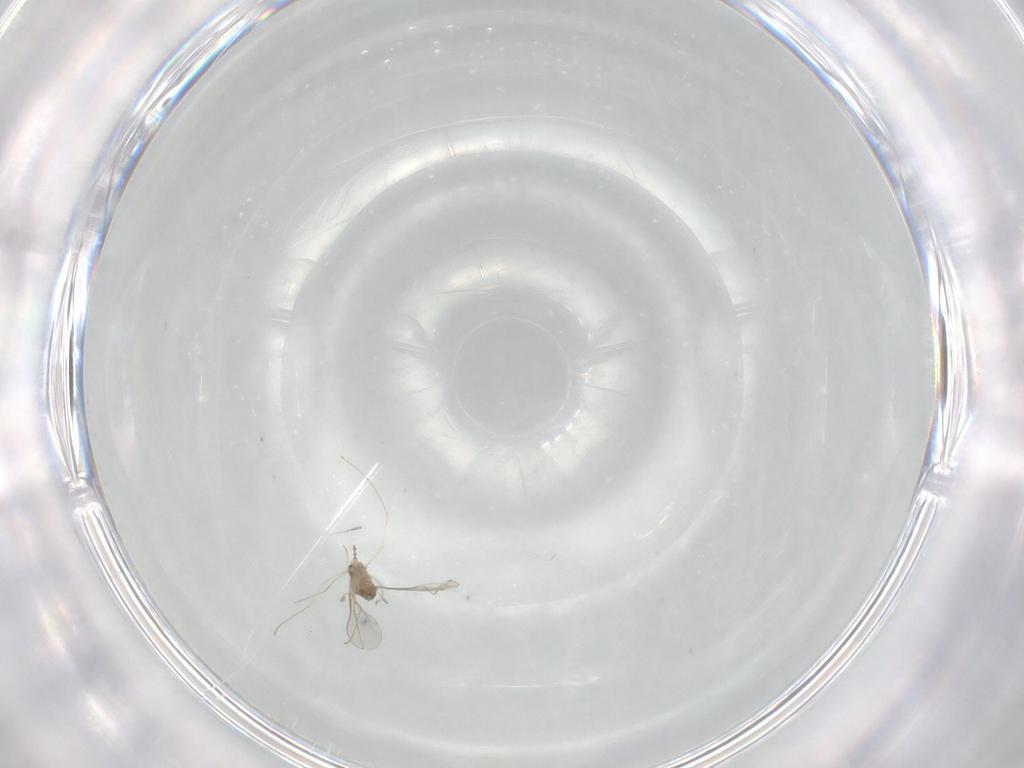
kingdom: Animalia
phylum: Arthropoda
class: Insecta
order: Diptera
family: Cecidomyiidae
